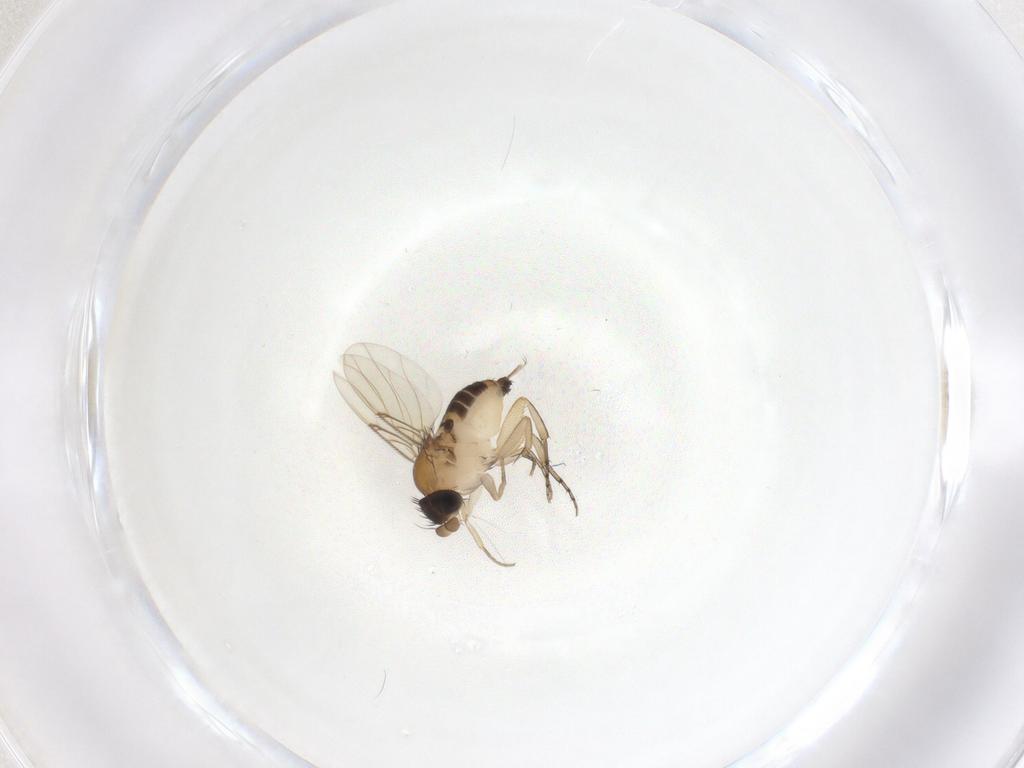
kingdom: Animalia
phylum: Arthropoda
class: Insecta
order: Diptera
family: Phoridae
